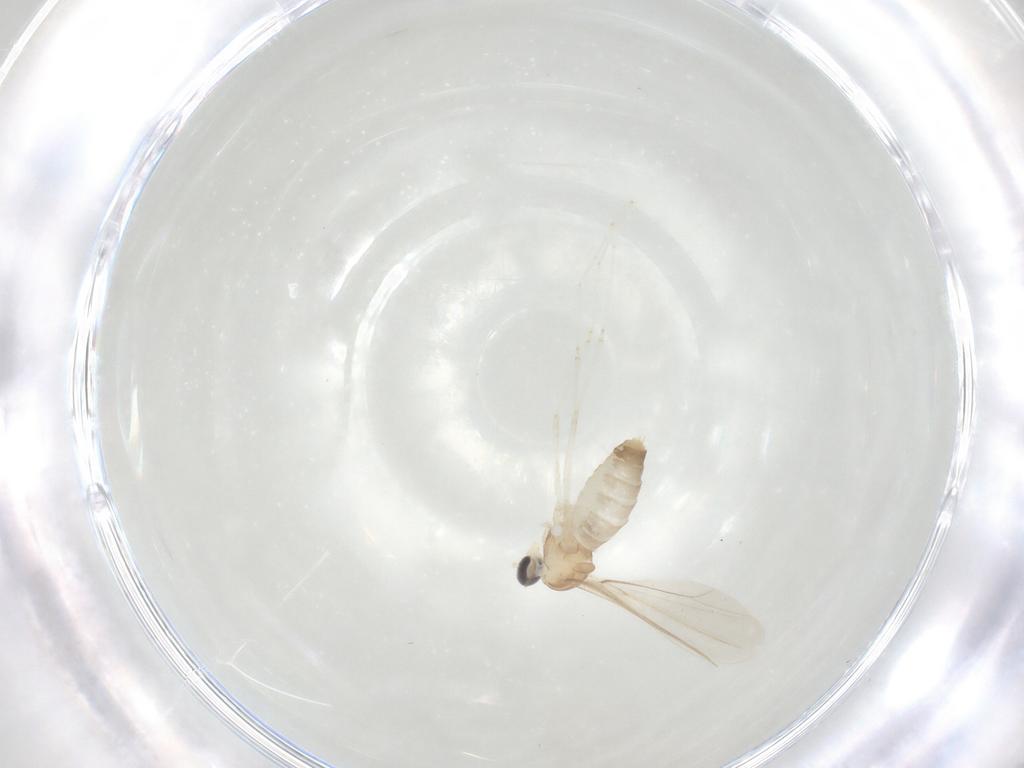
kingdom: Animalia
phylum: Arthropoda
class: Insecta
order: Diptera
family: Cecidomyiidae
